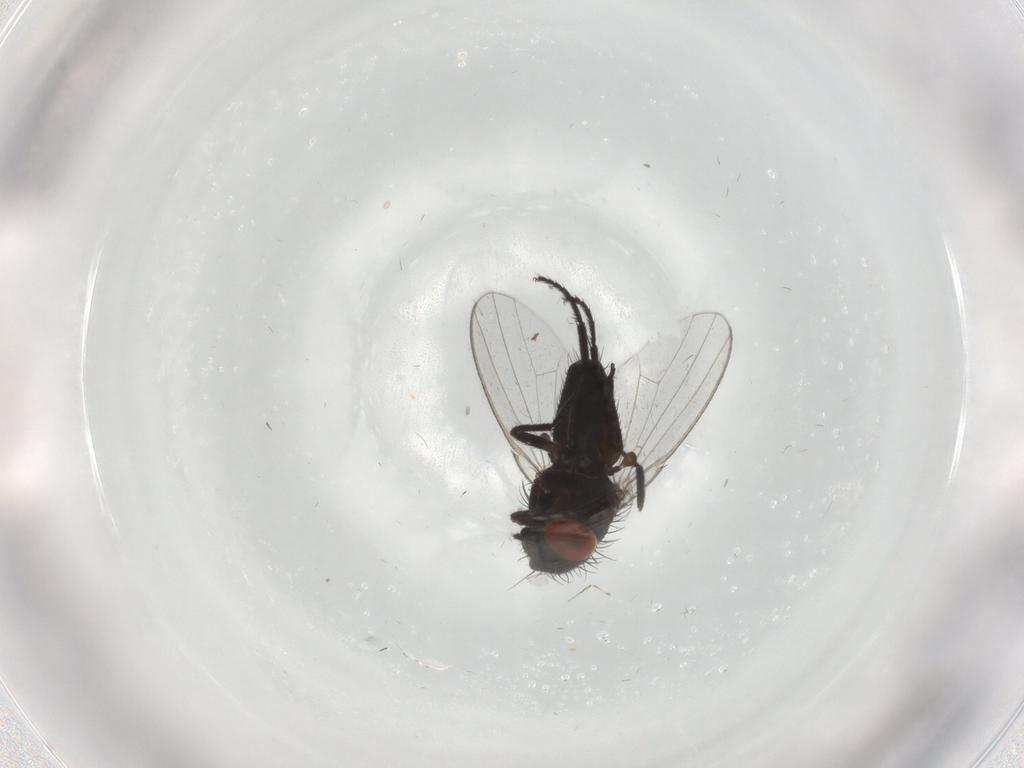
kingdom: Animalia
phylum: Arthropoda
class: Insecta
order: Diptera
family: Milichiidae
